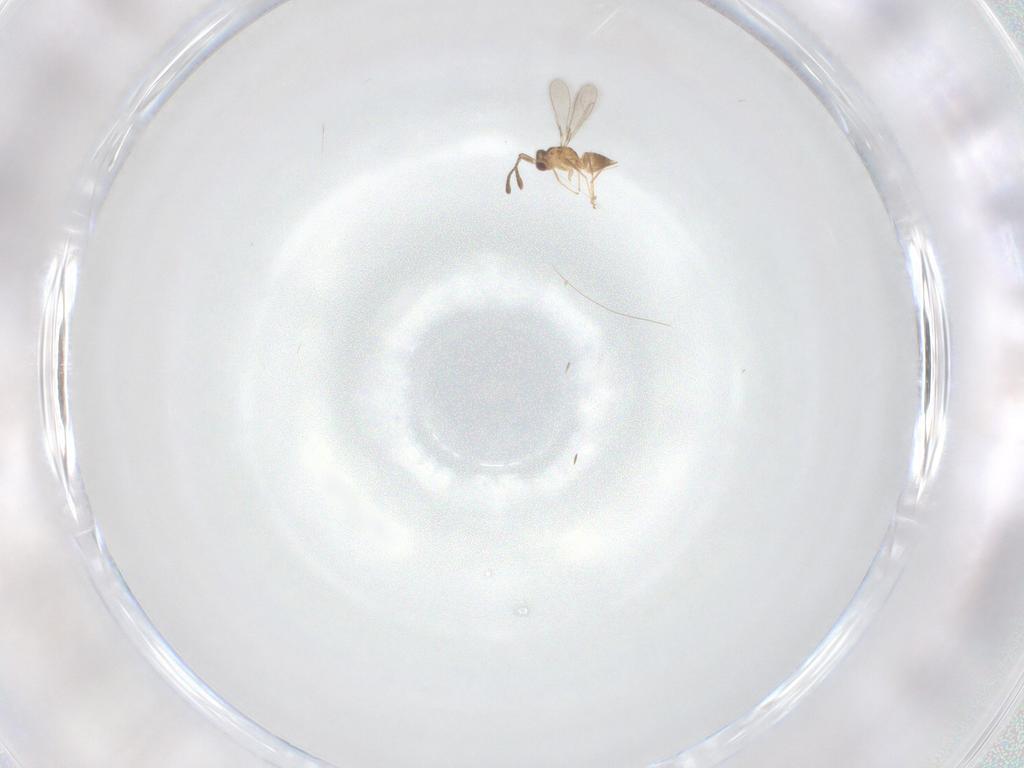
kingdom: Animalia
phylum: Arthropoda
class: Insecta
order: Hymenoptera
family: Mymaridae
